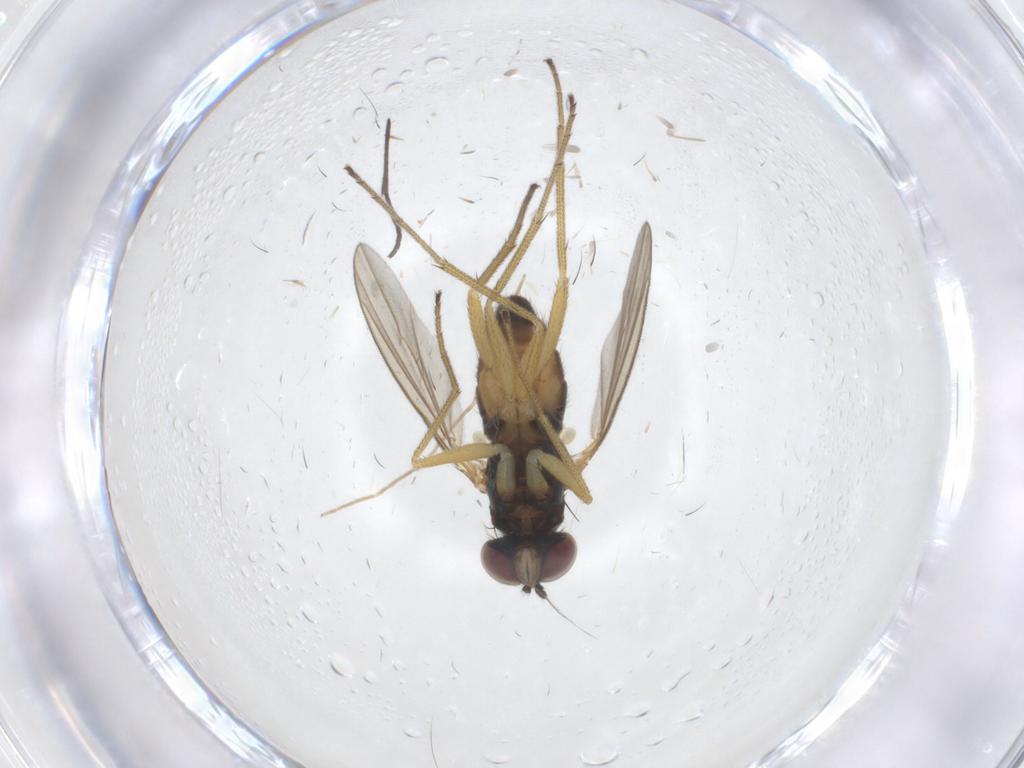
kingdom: Animalia
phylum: Arthropoda
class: Insecta
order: Diptera
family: Dolichopodidae
